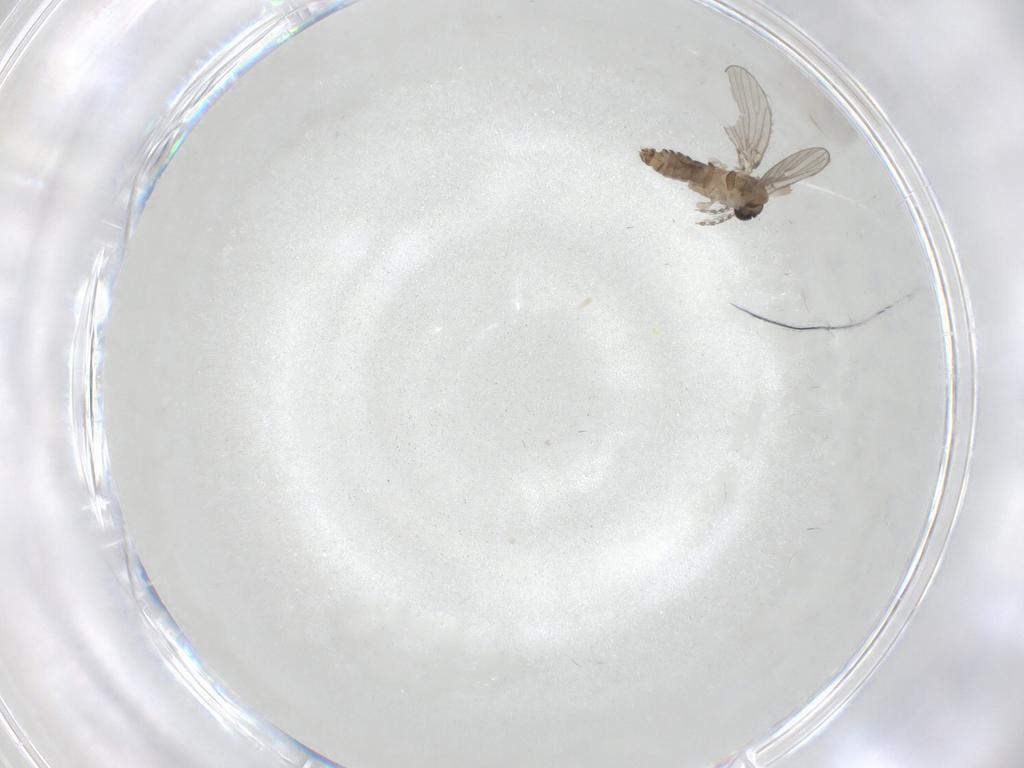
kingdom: Animalia
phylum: Arthropoda
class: Insecta
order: Diptera
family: Psychodidae
